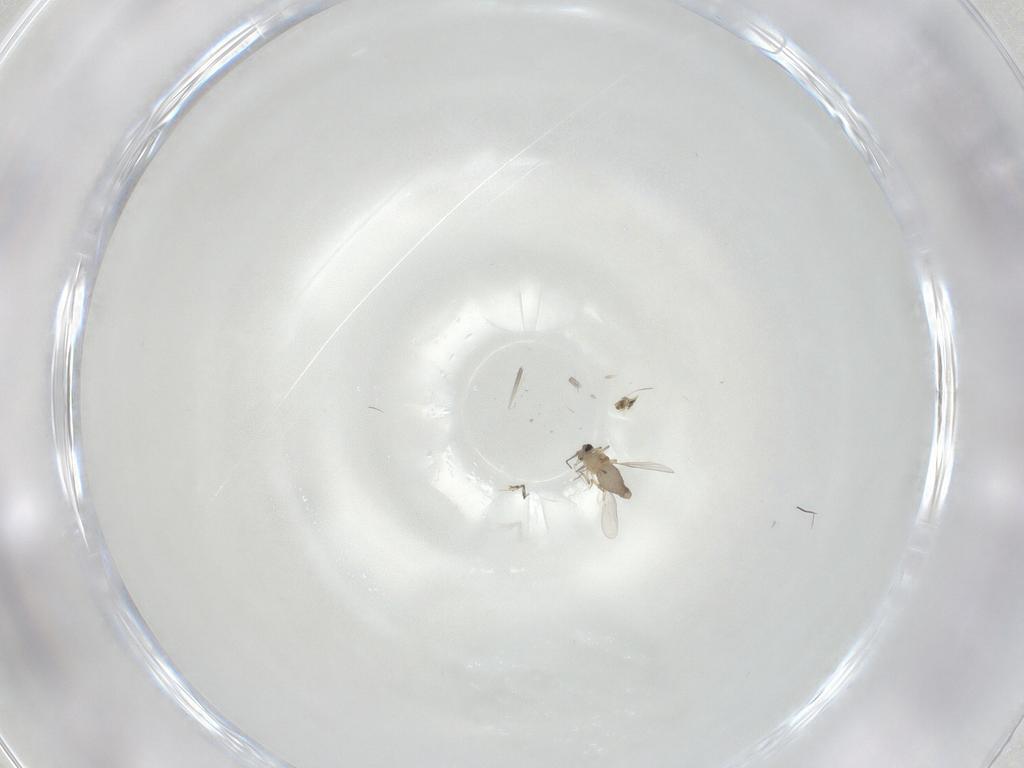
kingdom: Animalia
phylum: Arthropoda
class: Insecta
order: Diptera
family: Ceratopogonidae
